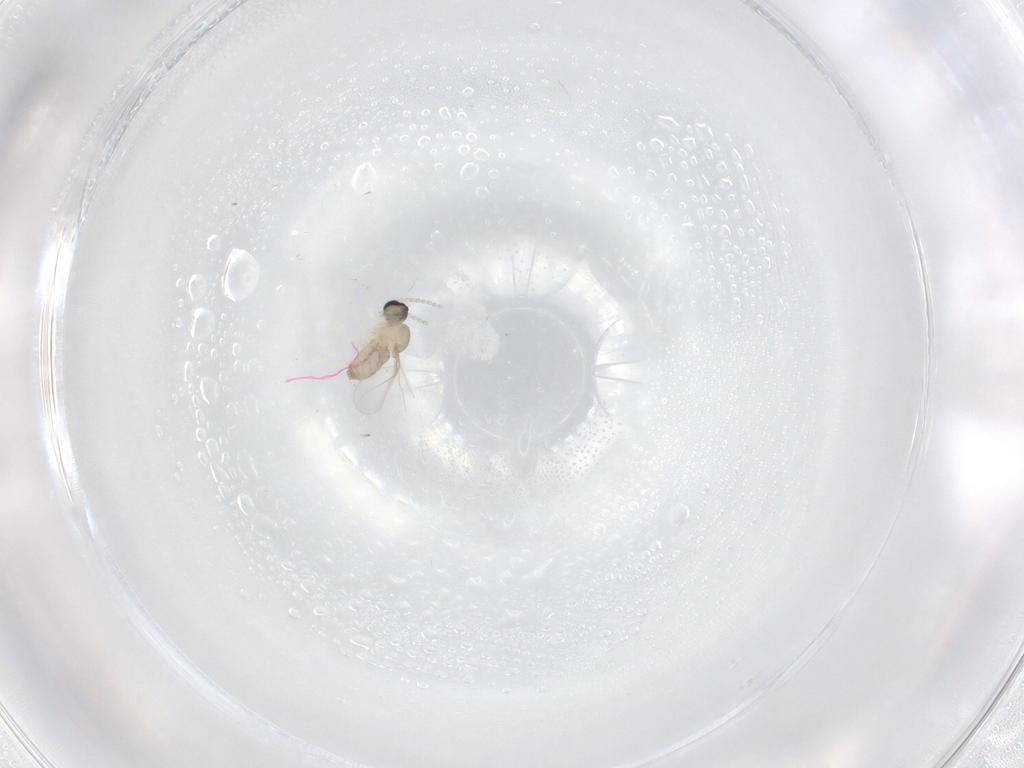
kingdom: Animalia
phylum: Arthropoda
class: Insecta
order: Diptera
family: Cecidomyiidae
